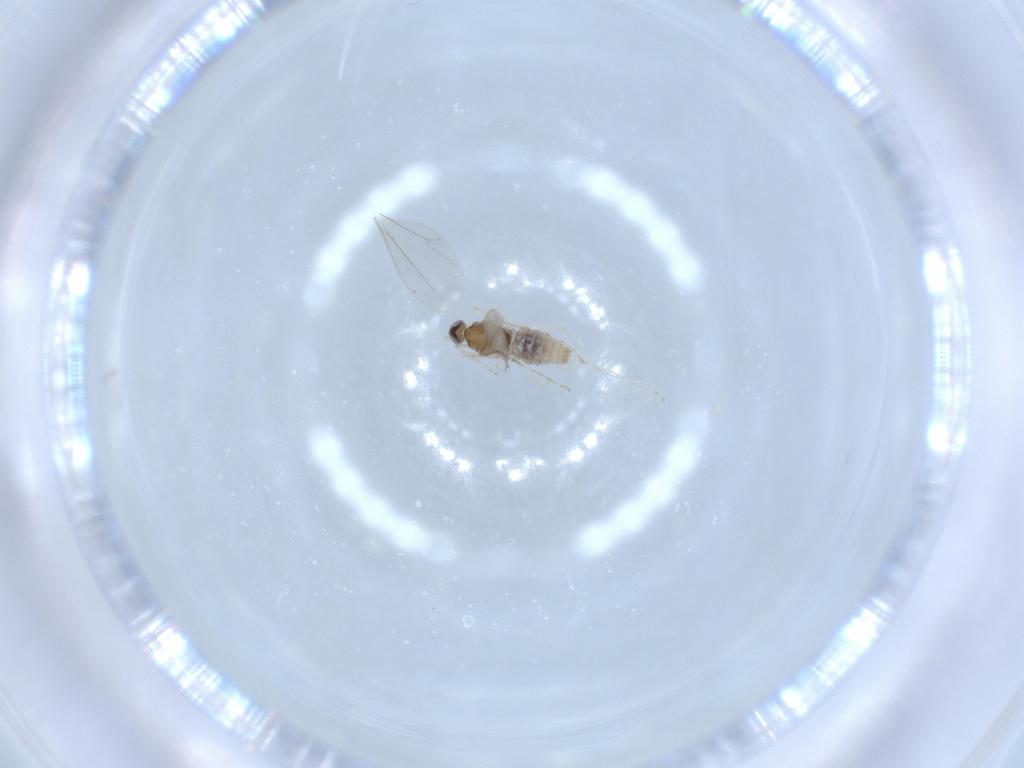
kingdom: Animalia
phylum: Arthropoda
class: Insecta
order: Diptera
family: Cecidomyiidae
